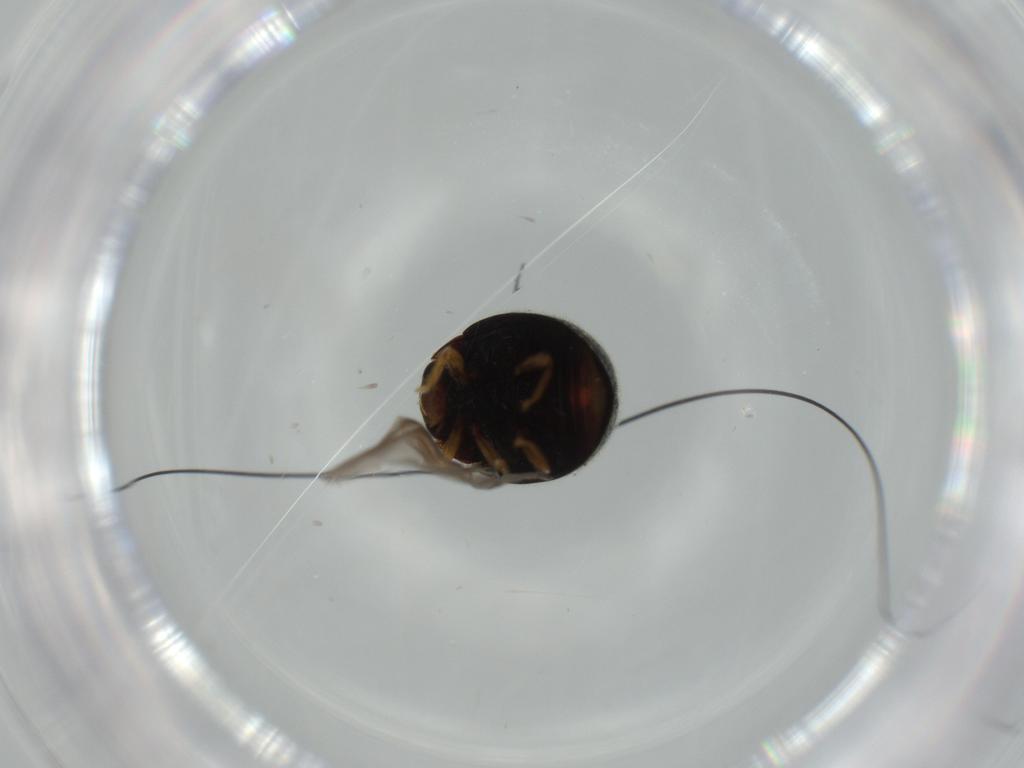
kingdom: Animalia
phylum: Arthropoda
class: Insecta
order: Coleoptera
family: Coccinellidae
